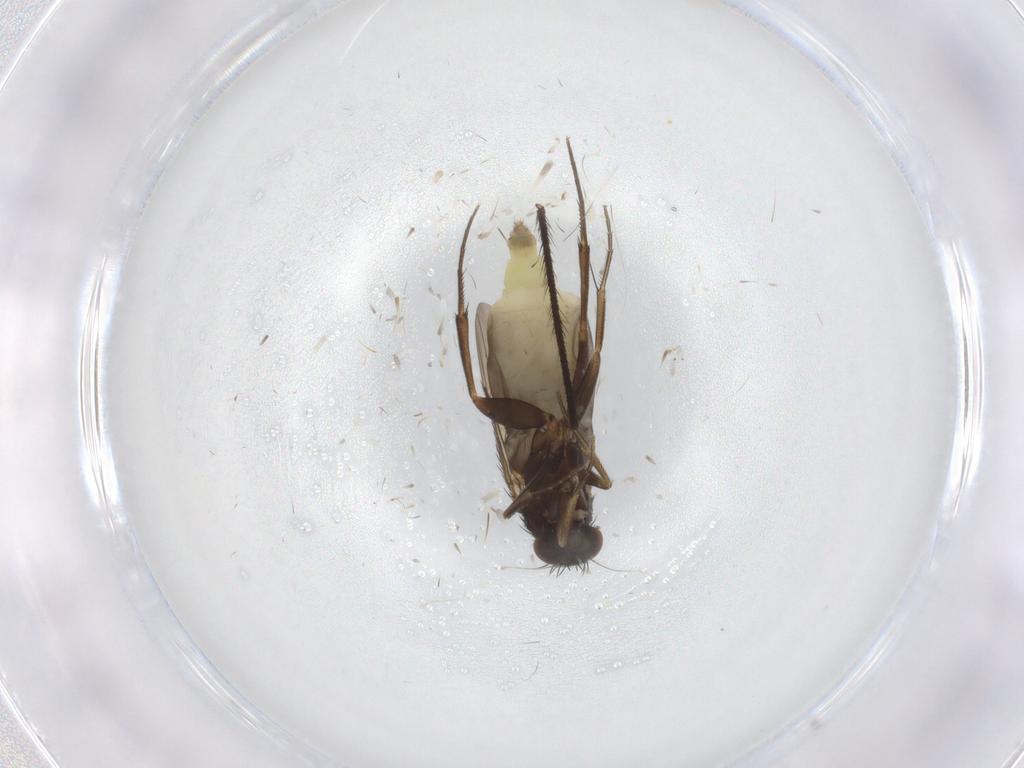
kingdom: Animalia
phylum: Arthropoda
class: Insecta
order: Diptera
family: Phoridae
